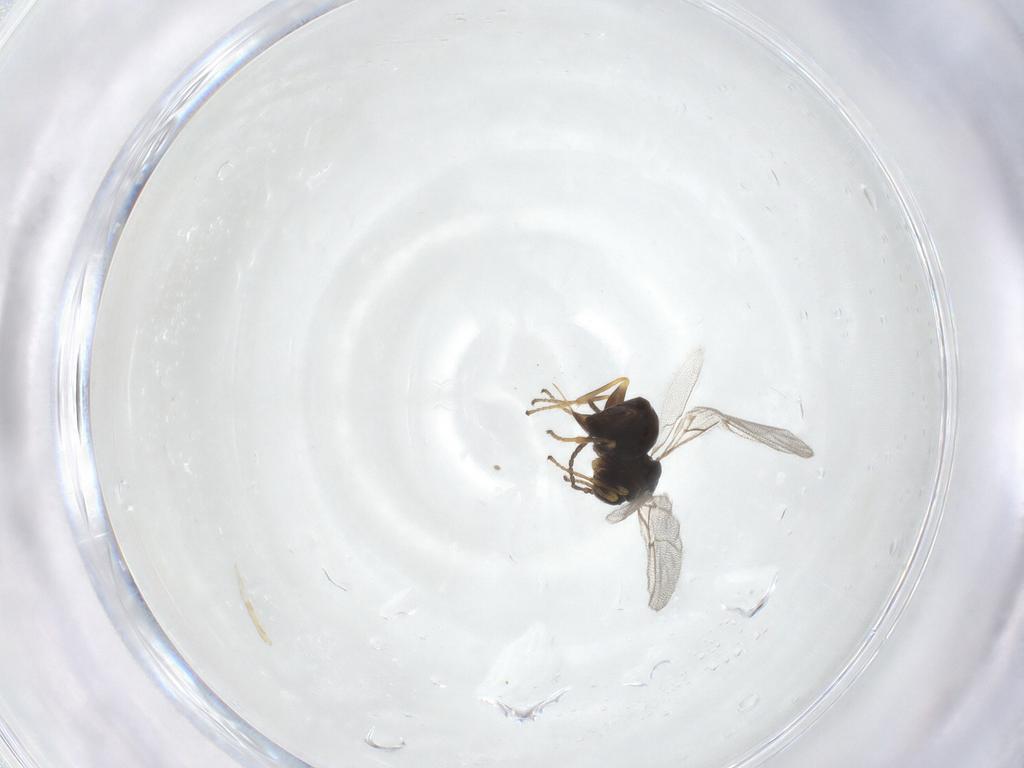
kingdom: Animalia
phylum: Arthropoda
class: Insecta
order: Hymenoptera
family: Cynipidae
